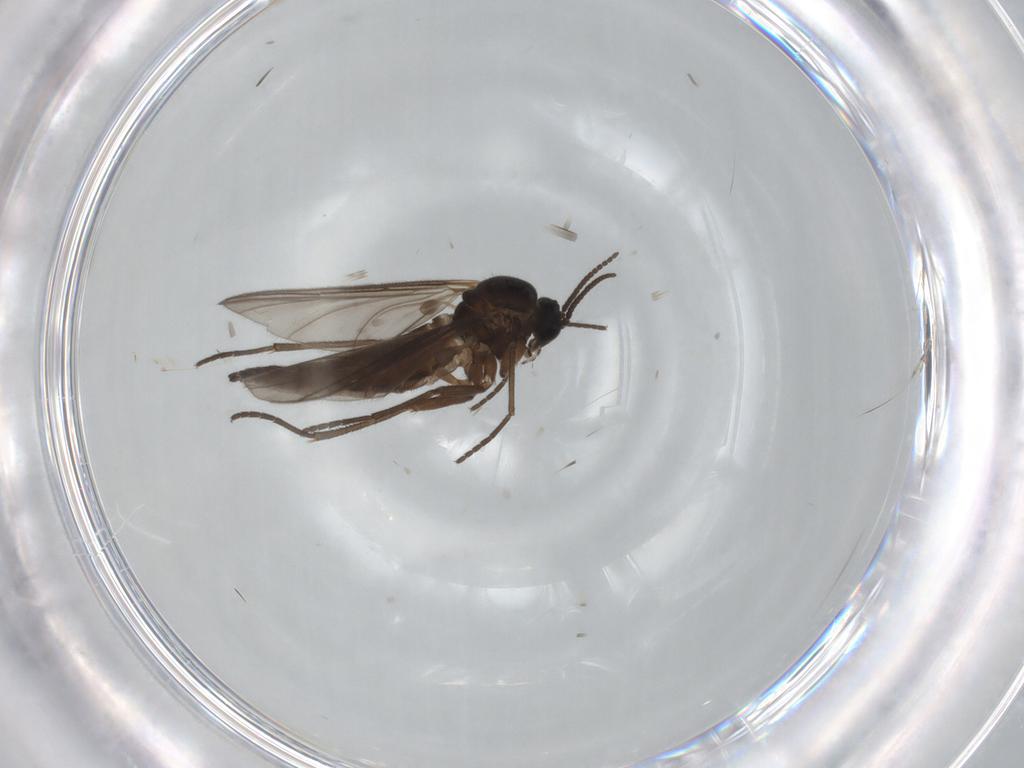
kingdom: Animalia
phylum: Arthropoda
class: Insecta
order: Diptera
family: Sciaridae
